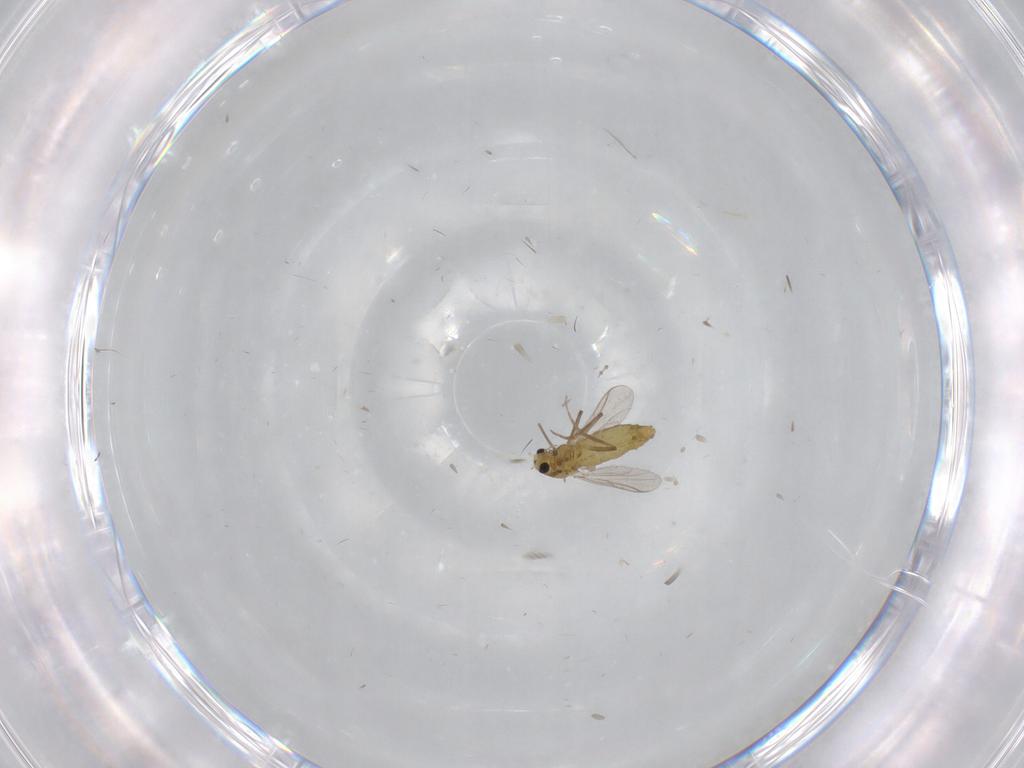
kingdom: Animalia
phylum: Arthropoda
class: Insecta
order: Diptera
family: Chironomidae
